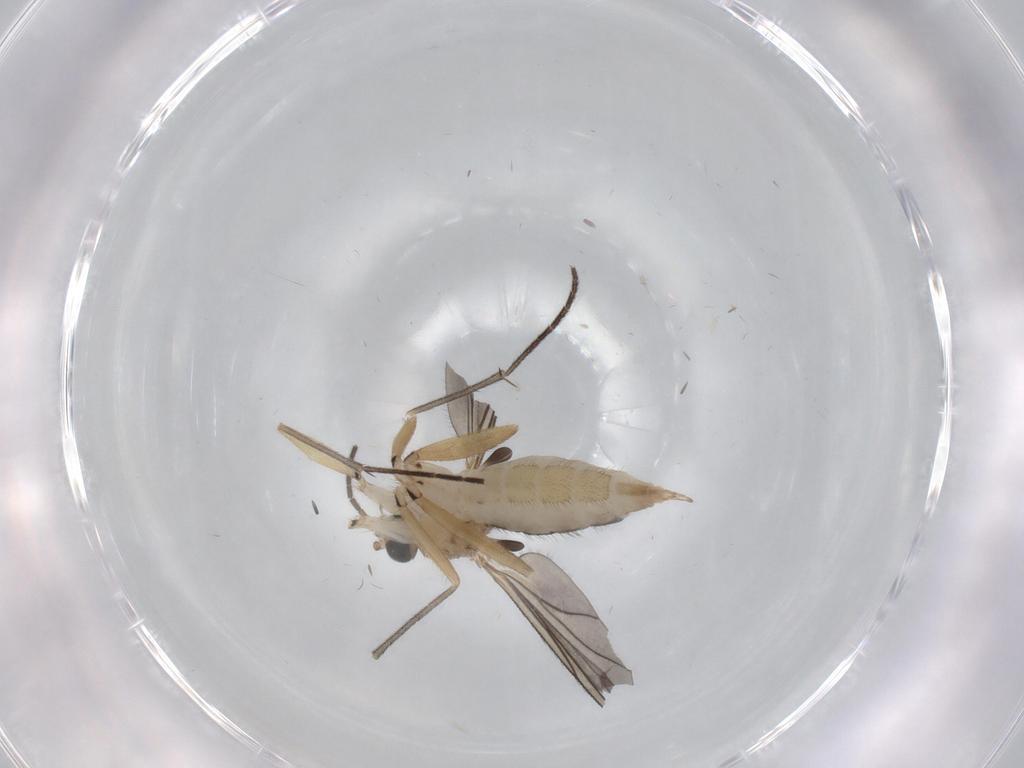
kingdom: Animalia
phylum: Arthropoda
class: Insecta
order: Diptera
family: Sciaridae
